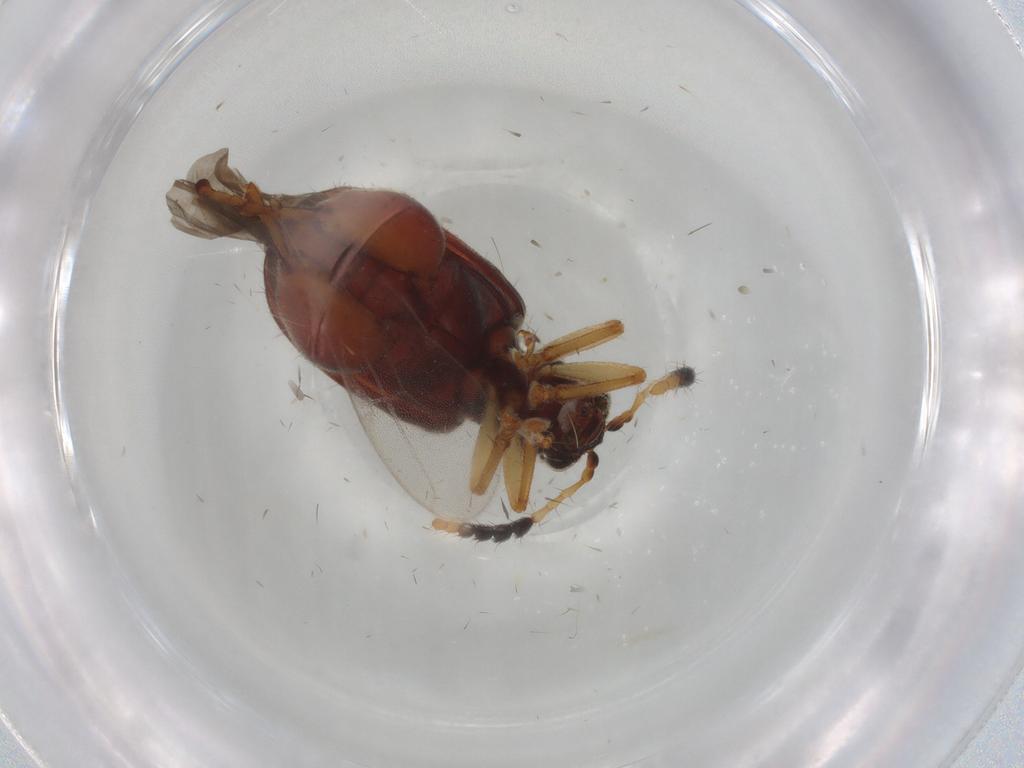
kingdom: Animalia
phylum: Arthropoda
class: Insecta
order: Coleoptera
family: Chrysomelidae
